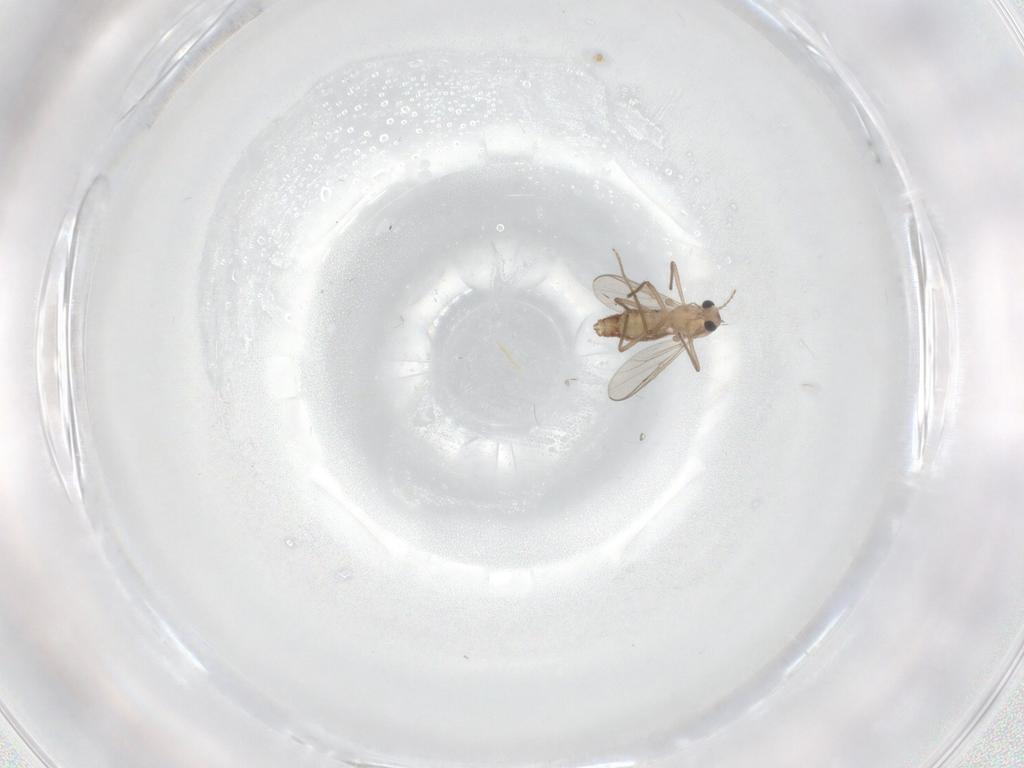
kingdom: Animalia
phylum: Arthropoda
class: Insecta
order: Diptera
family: Chironomidae
